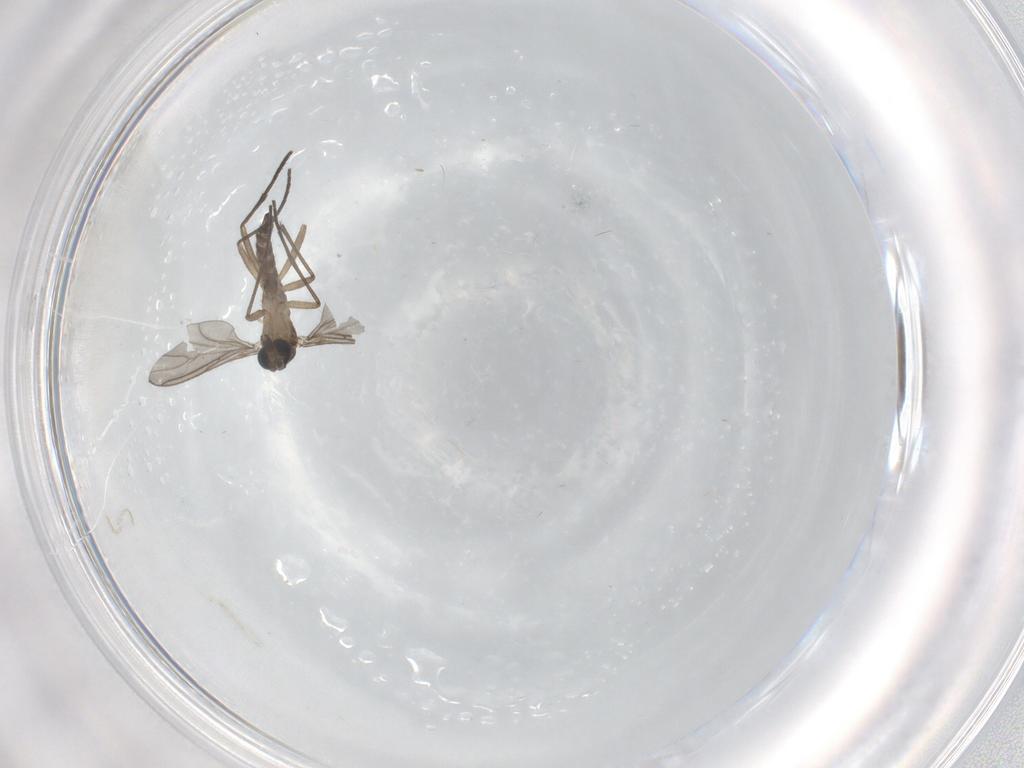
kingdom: Animalia
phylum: Arthropoda
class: Insecta
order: Diptera
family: Sciaridae
